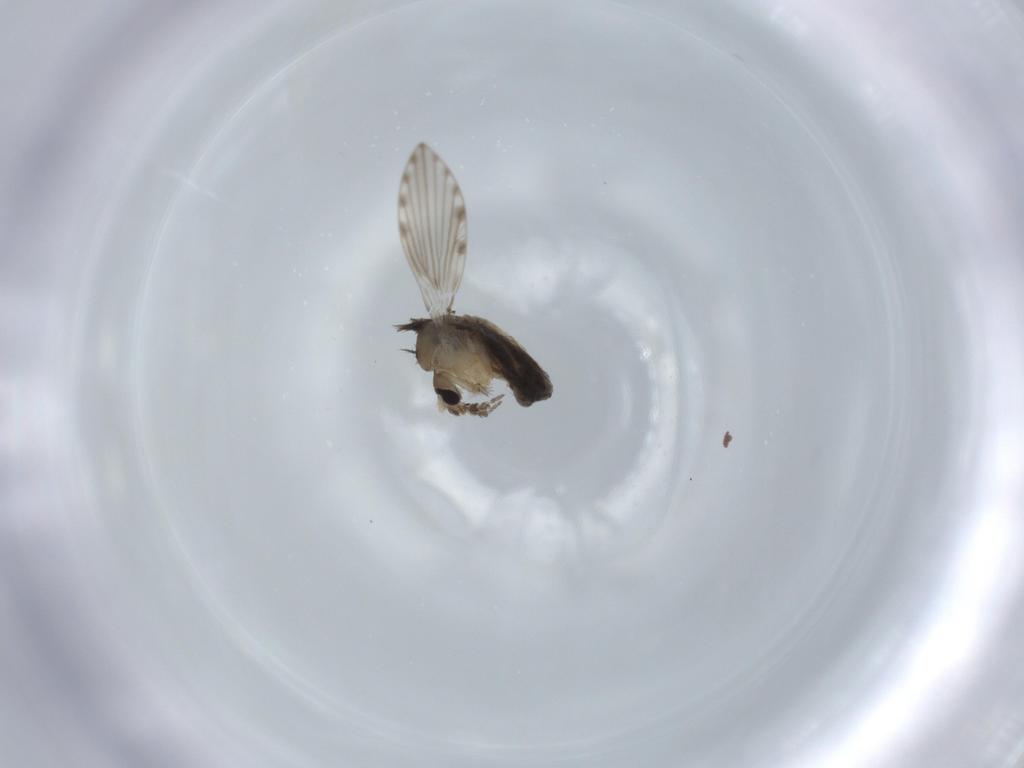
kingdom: Animalia
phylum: Arthropoda
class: Insecta
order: Diptera
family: Psychodidae
